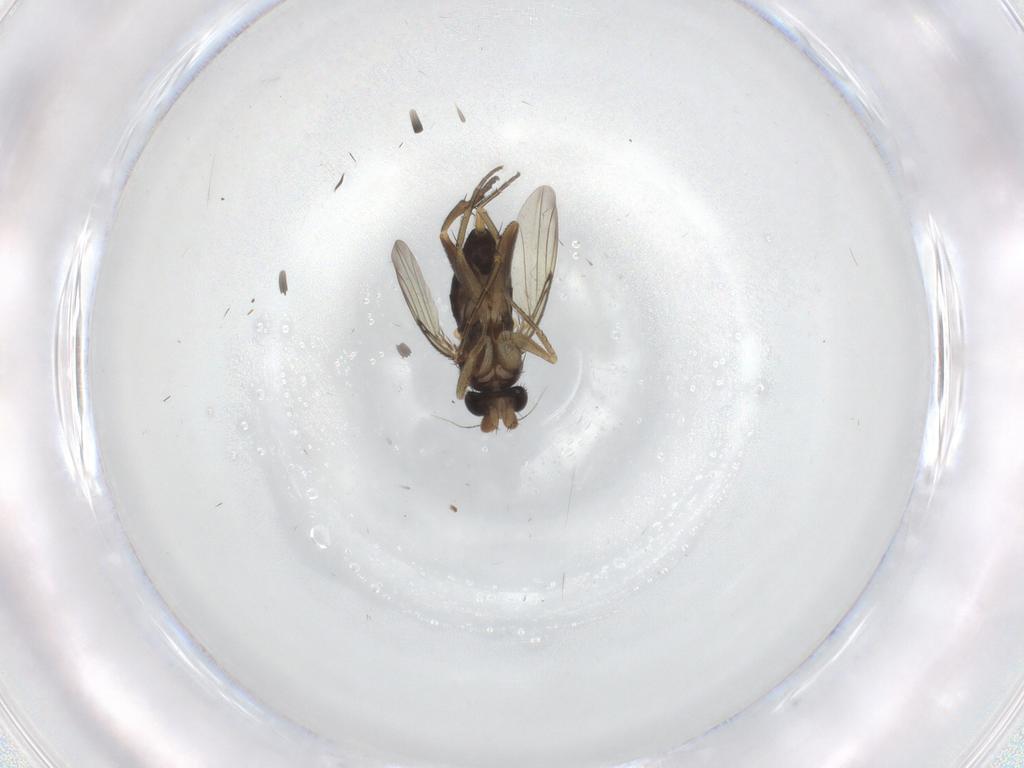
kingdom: Animalia
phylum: Arthropoda
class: Insecta
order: Diptera
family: Phoridae
